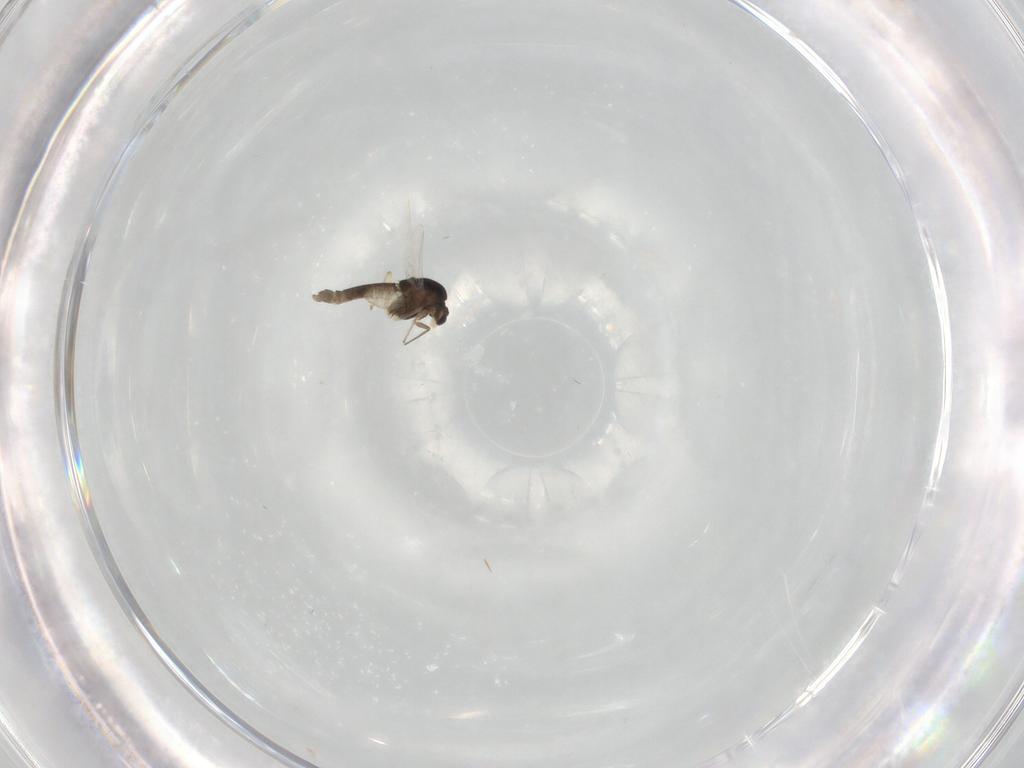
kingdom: Animalia
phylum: Arthropoda
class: Insecta
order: Diptera
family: Chironomidae
